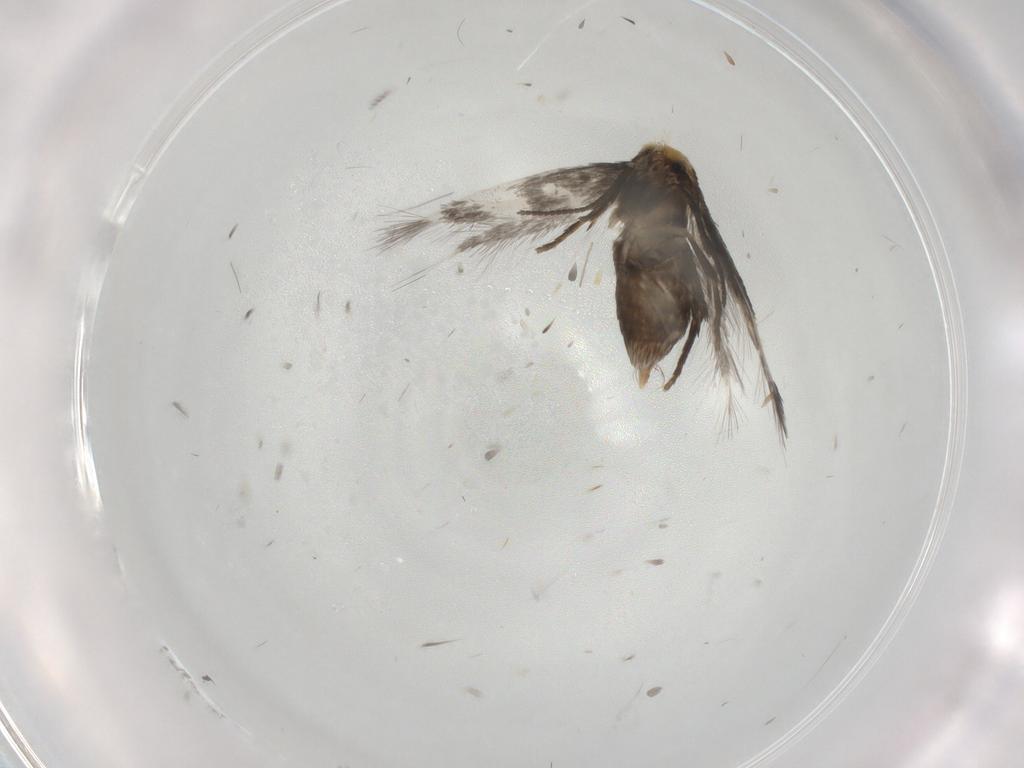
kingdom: Animalia
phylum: Arthropoda
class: Insecta
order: Lepidoptera
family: Nepticulidae
